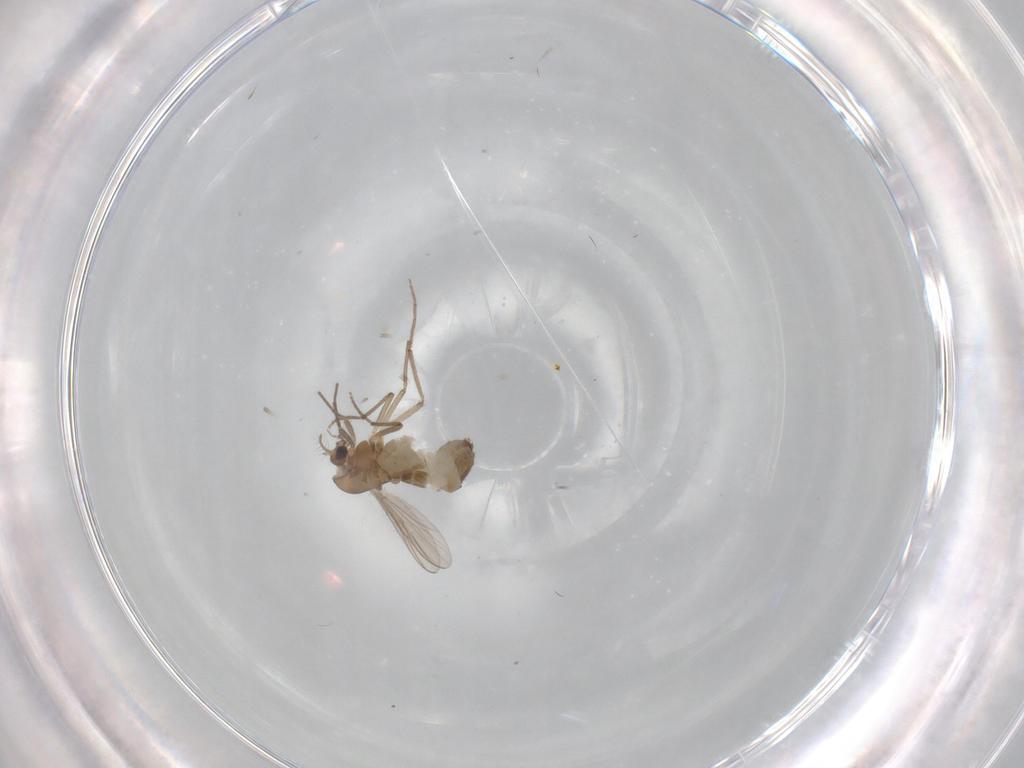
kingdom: Animalia
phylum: Arthropoda
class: Insecta
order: Diptera
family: Chironomidae
